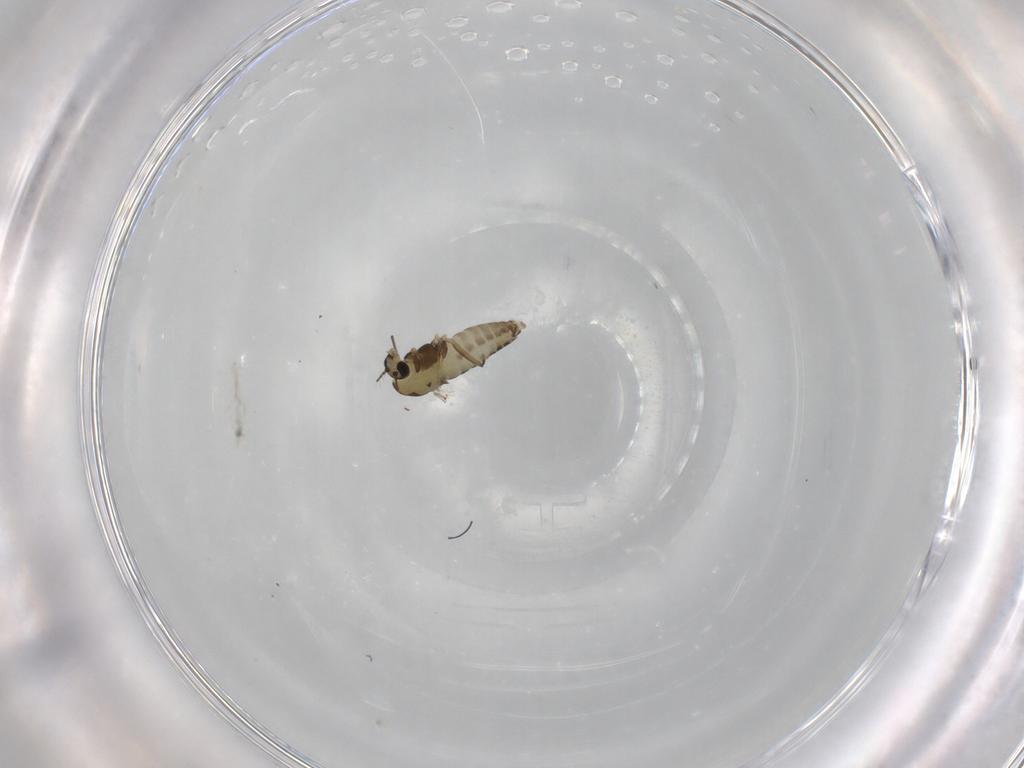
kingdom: Animalia
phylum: Arthropoda
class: Insecta
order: Diptera
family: Chironomidae
